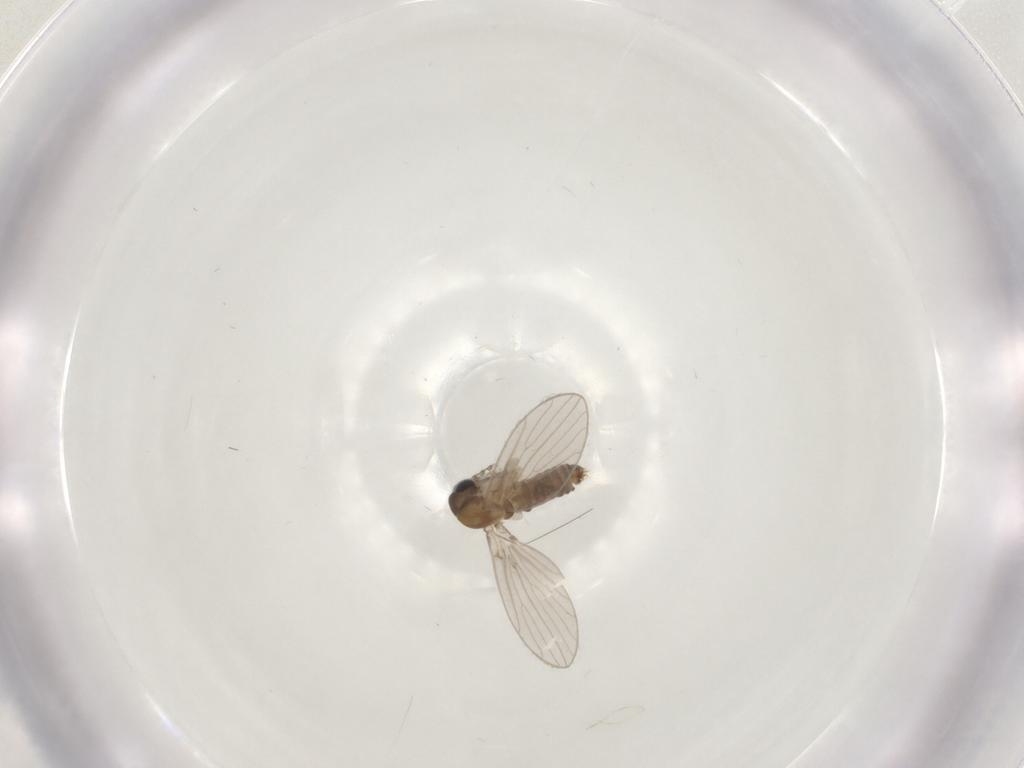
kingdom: Animalia
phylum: Arthropoda
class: Insecta
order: Diptera
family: Psychodidae
